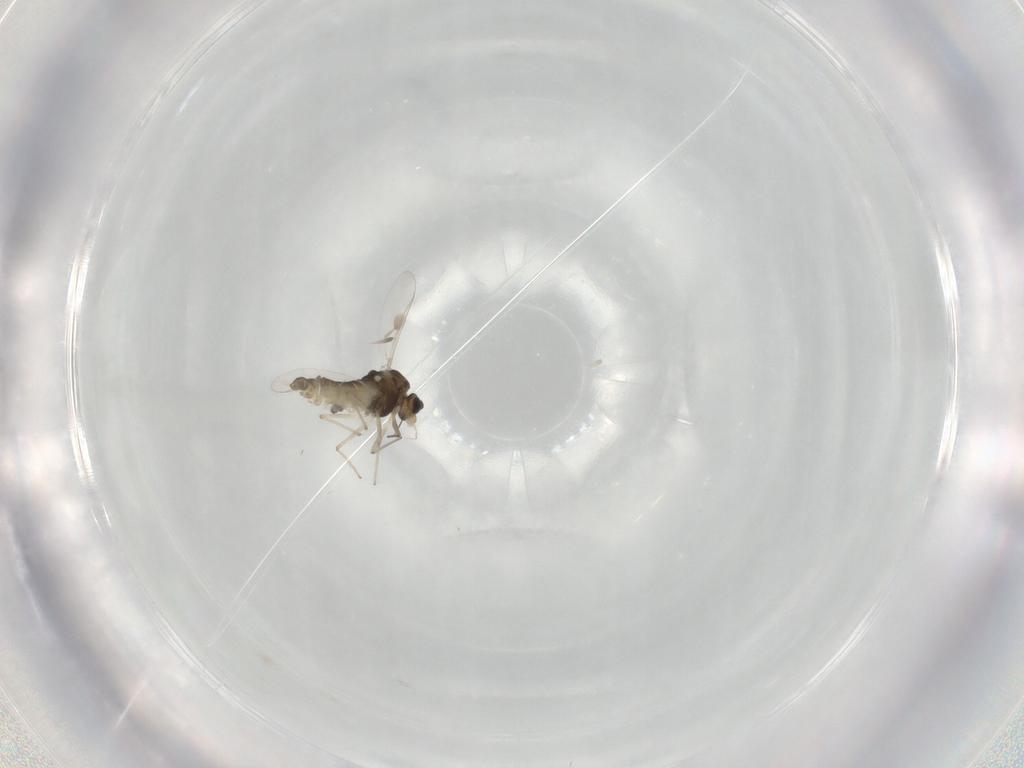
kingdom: Animalia
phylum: Arthropoda
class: Insecta
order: Diptera
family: Chironomidae
